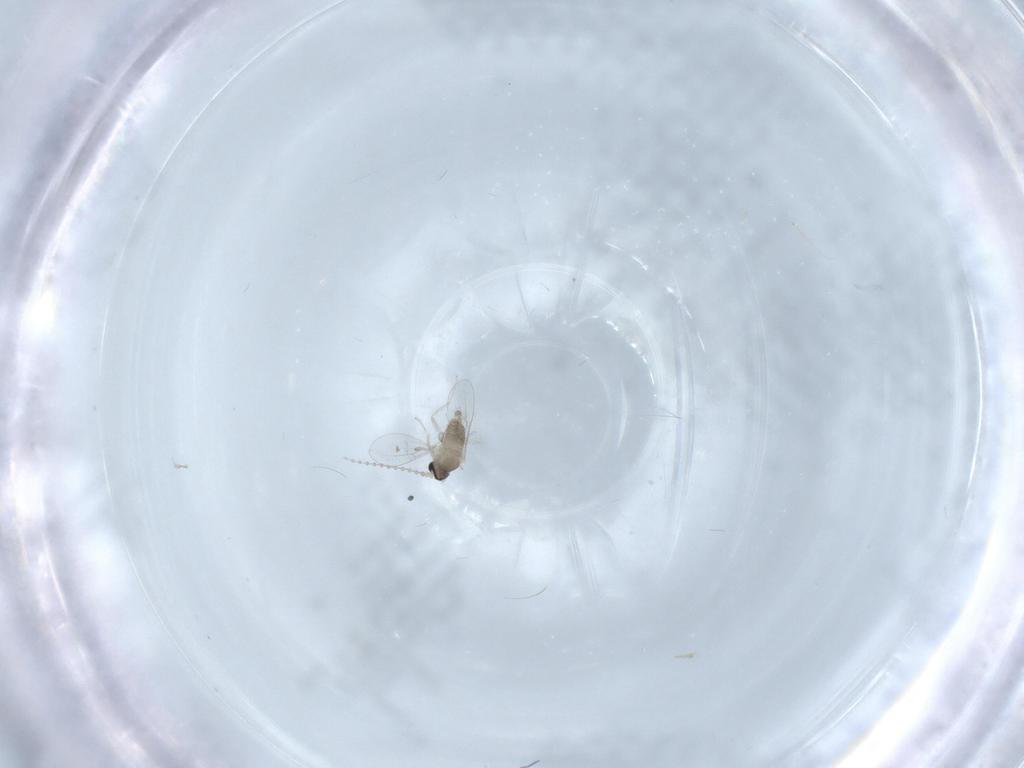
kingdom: Animalia
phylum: Arthropoda
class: Insecta
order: Diptera
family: Cecidomyiidae
